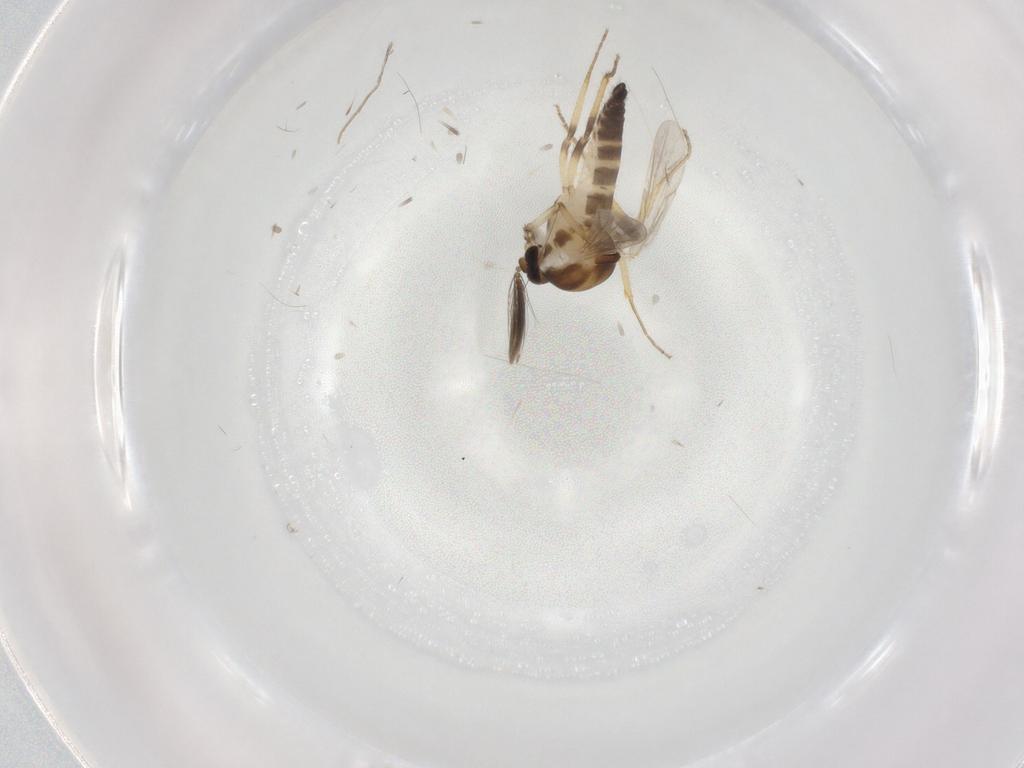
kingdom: Animalia
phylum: Arthropoda
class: Insecta
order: Diptera
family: Ceratopogonidae
